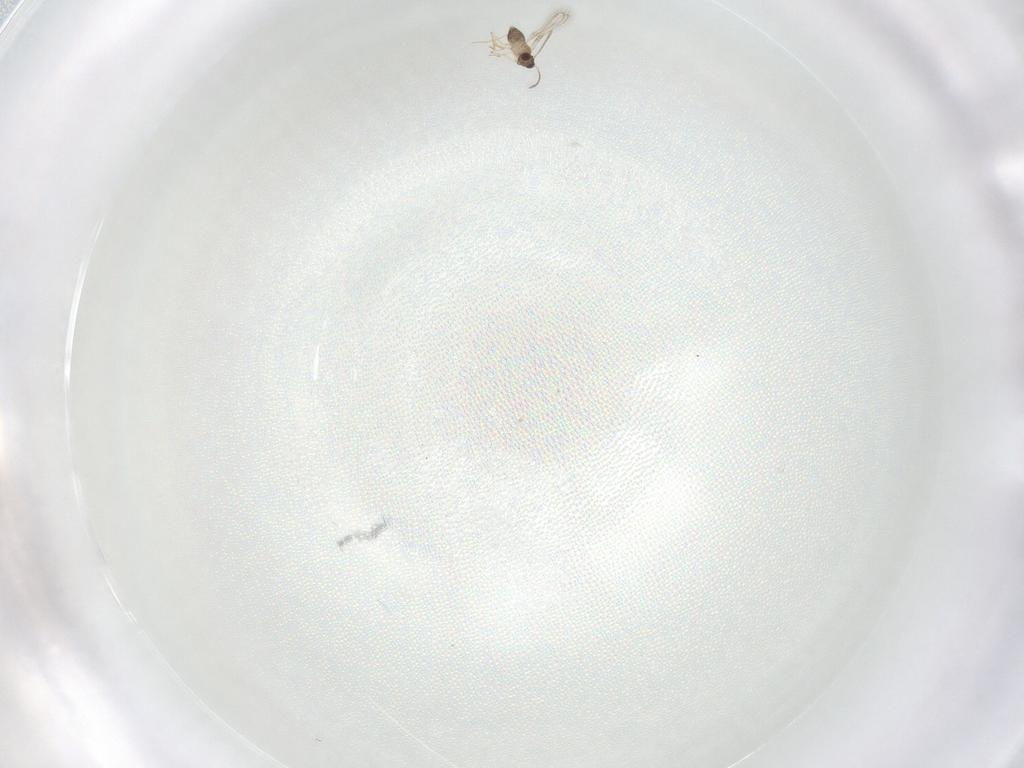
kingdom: Animalia
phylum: Arthropoda
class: Insecta
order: Hymenoptera
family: Mymaridae
